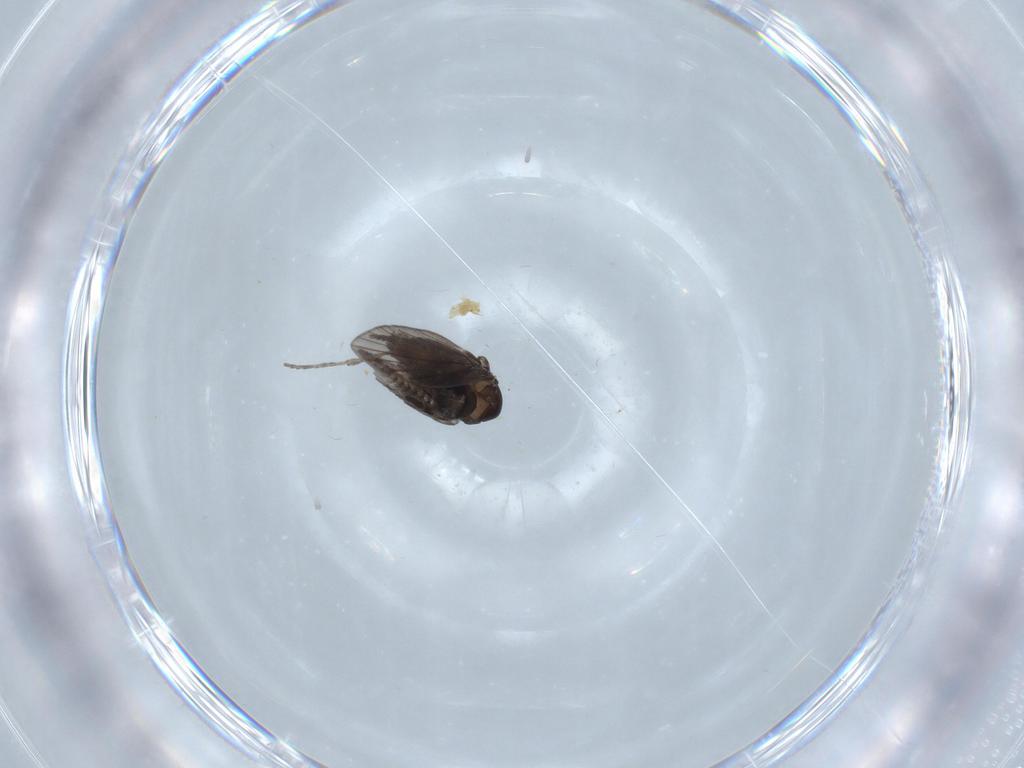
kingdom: Animalia
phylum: Arthropoda
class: Insecta
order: Diptera
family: Psychodidae
